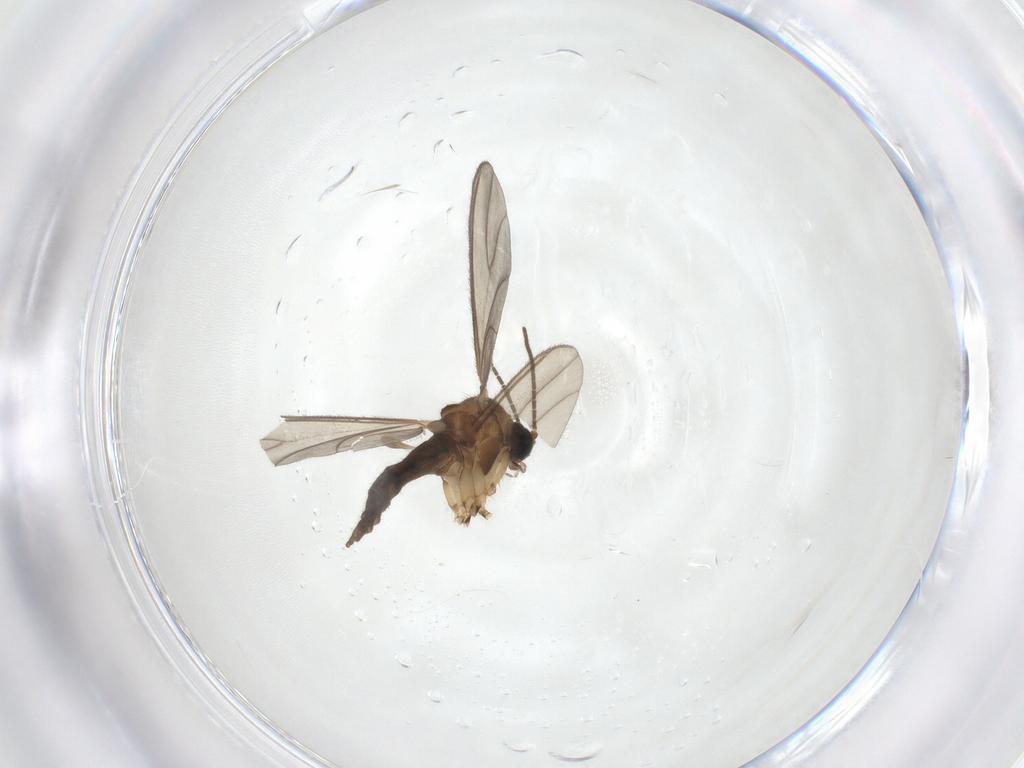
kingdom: Animalia
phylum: Arthropoda
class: Insecta
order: Diptera
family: Sciaridae
